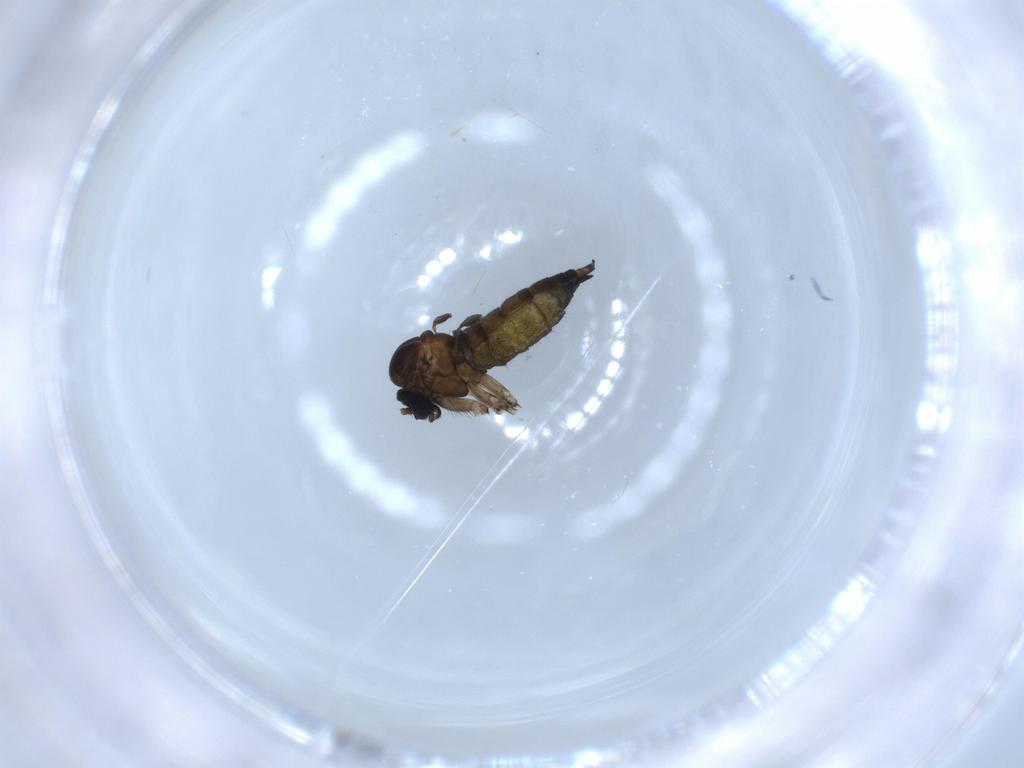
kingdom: Animalia
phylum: Arthropoda
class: Insecta
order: Diptera
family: Sciaridae
